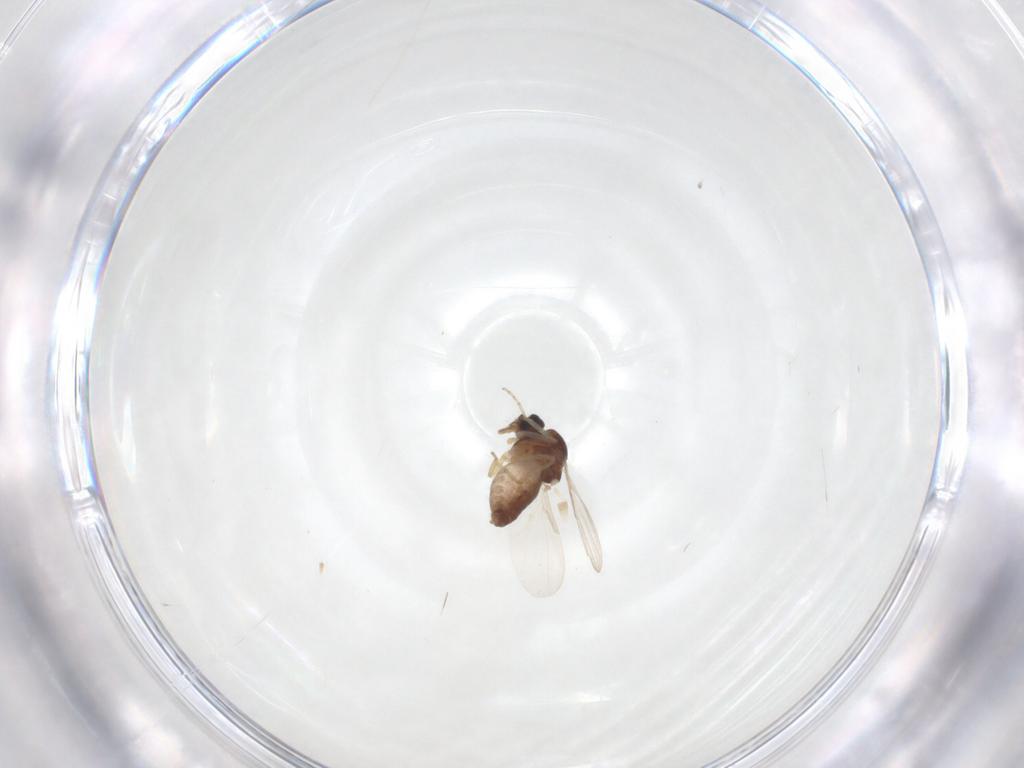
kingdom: Animalia
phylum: Arthropoda
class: Insecta
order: Diptera
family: Ceratopogonidae
